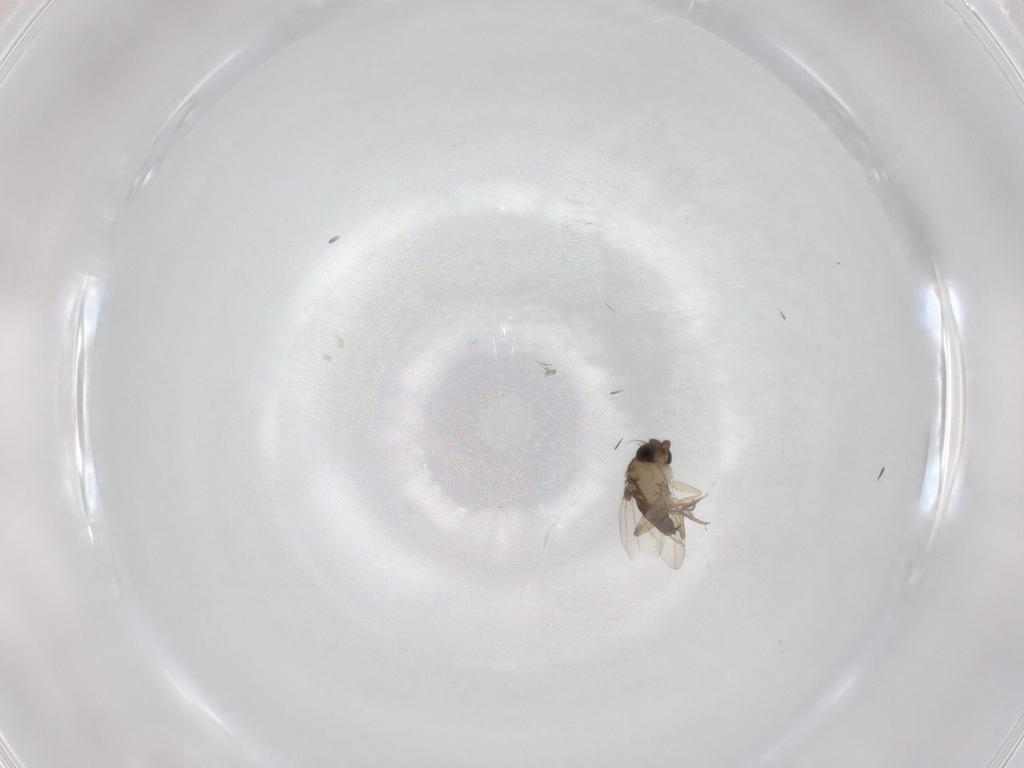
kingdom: Animalia
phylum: Arthropoda
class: Insecta
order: Diptera
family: Phoridae
